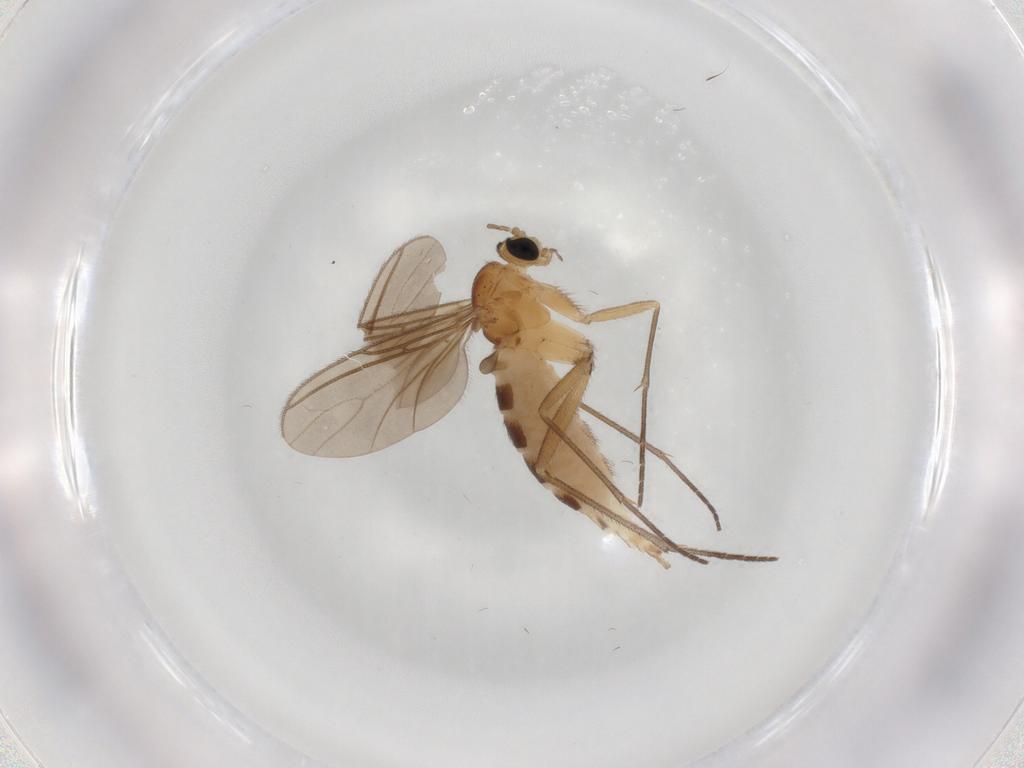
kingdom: Animalia
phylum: Arthropoda
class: Insecta
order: Diptera
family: Sciaridae
